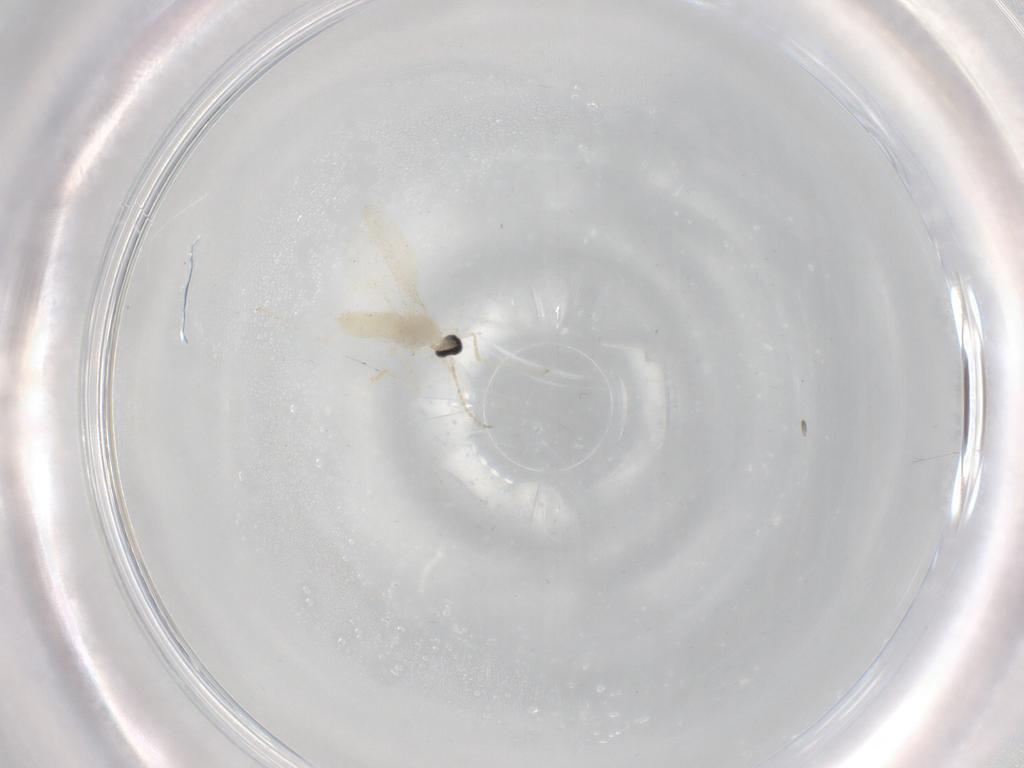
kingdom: Animalia
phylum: Arthropoda
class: Insecta
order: Diptera
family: Cecidomyiidae
